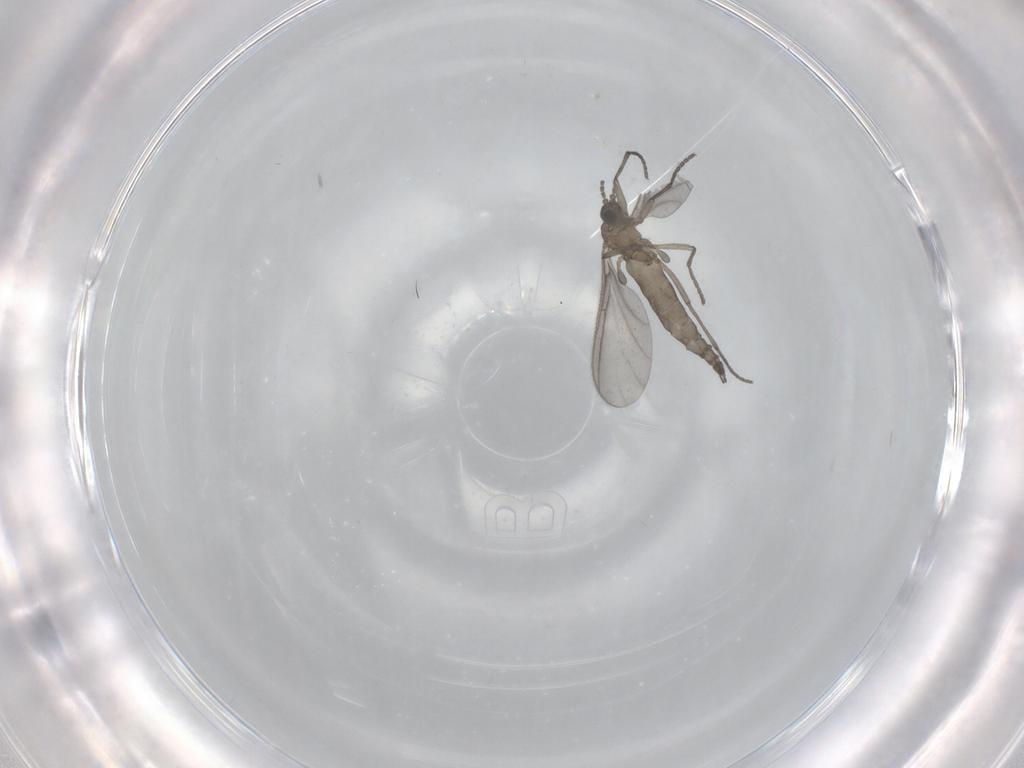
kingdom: Animalia
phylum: Arthropoda
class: Insecta
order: Diptera
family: Sciaridae
